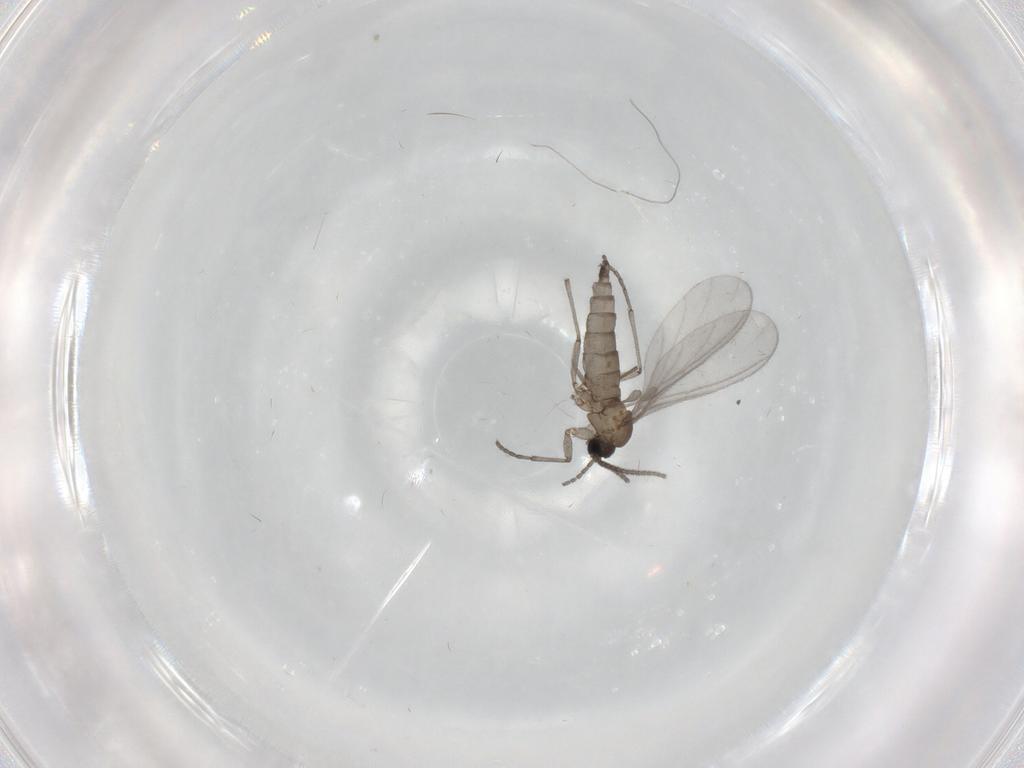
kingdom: Animalia
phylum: Arthropoda
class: Insecta
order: Diptera
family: Sciaridae
